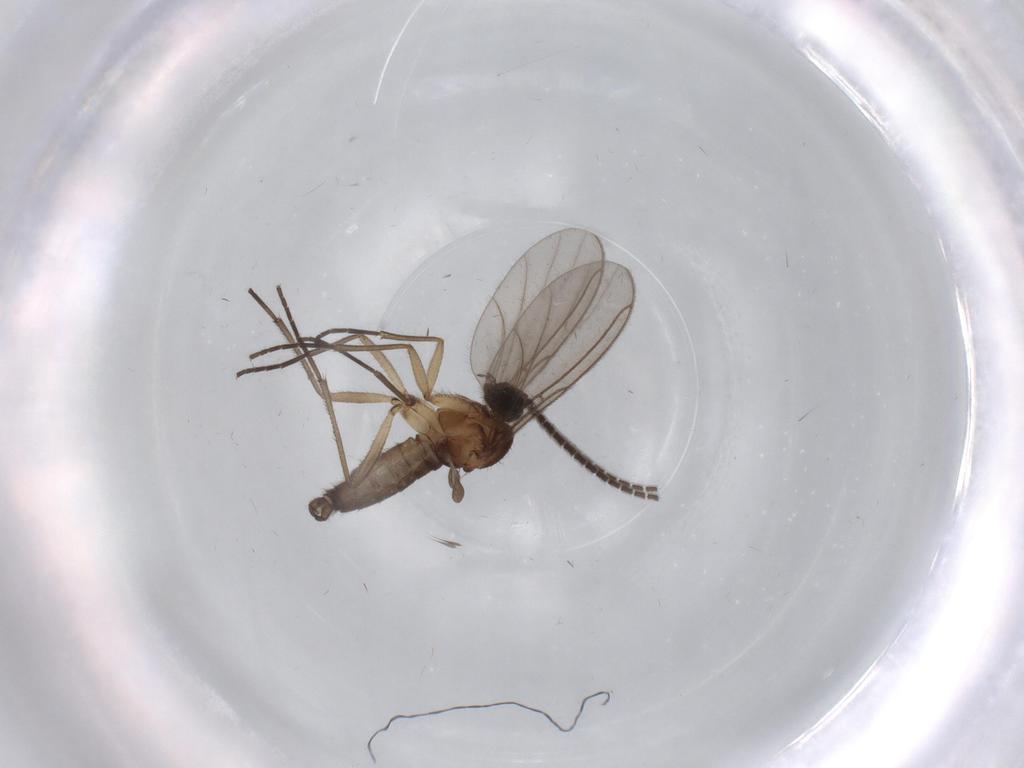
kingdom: Animalia
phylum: Arthropoda
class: Insecta
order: Diptera
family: Sciaridae
